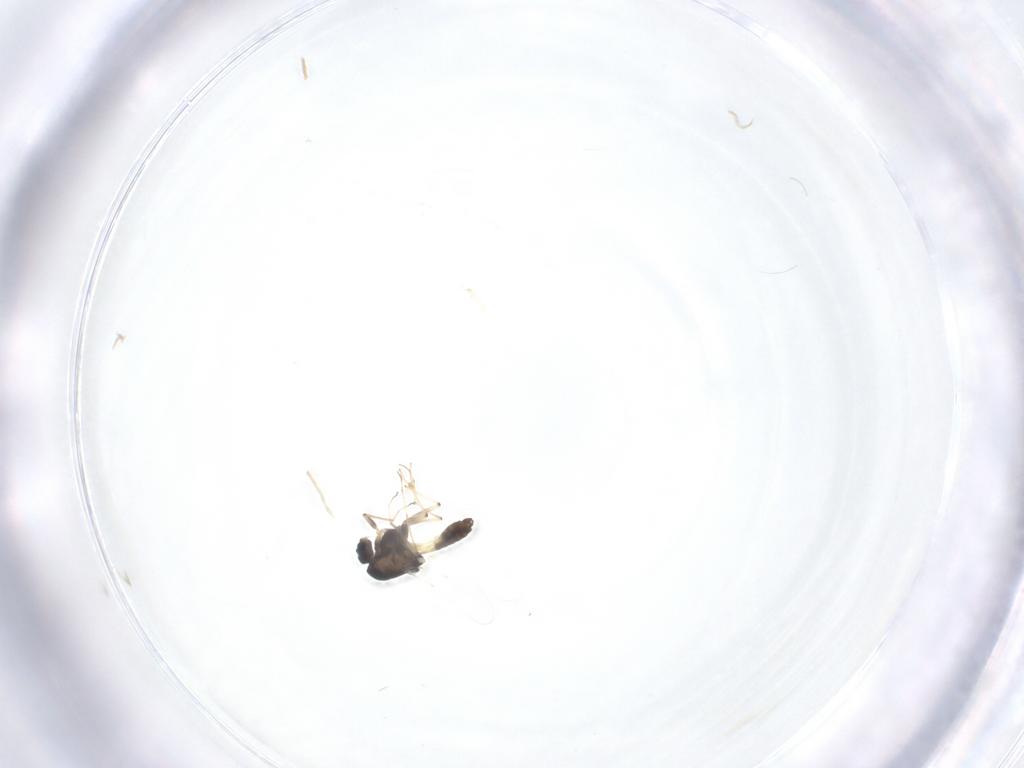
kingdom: Animalia
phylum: Arthropoda
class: Insecta
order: Diptera
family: Chironomidae
